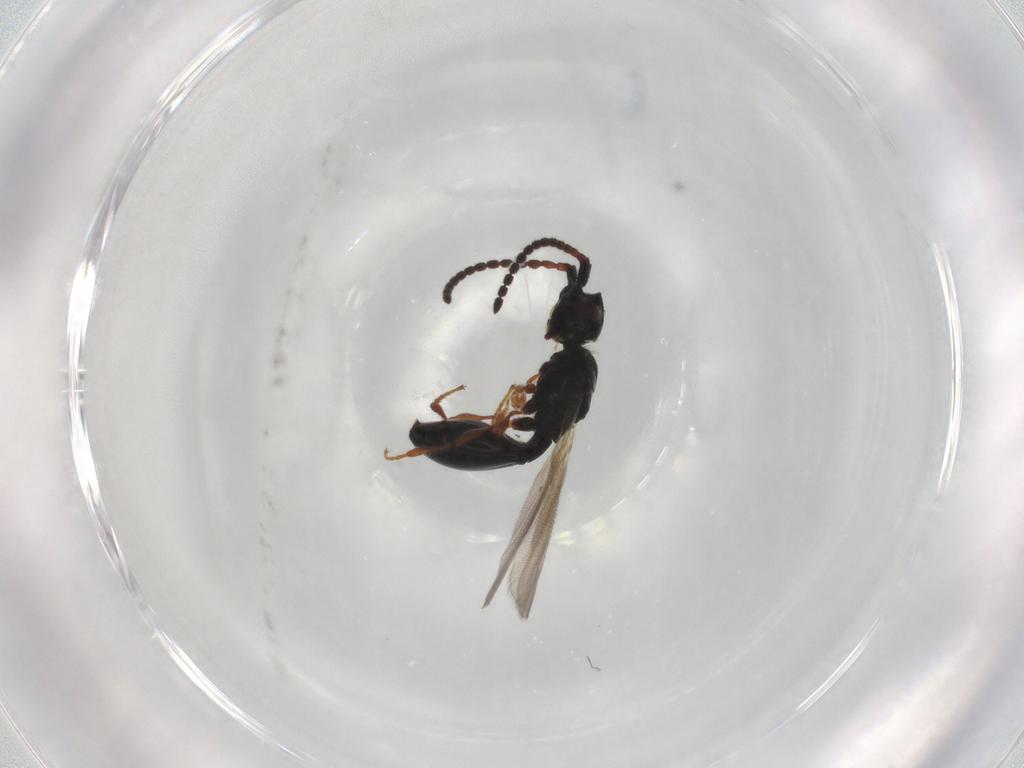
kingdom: Animalia
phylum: Arthropoda
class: Insecta
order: Hymenoptera
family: Diapriidae
